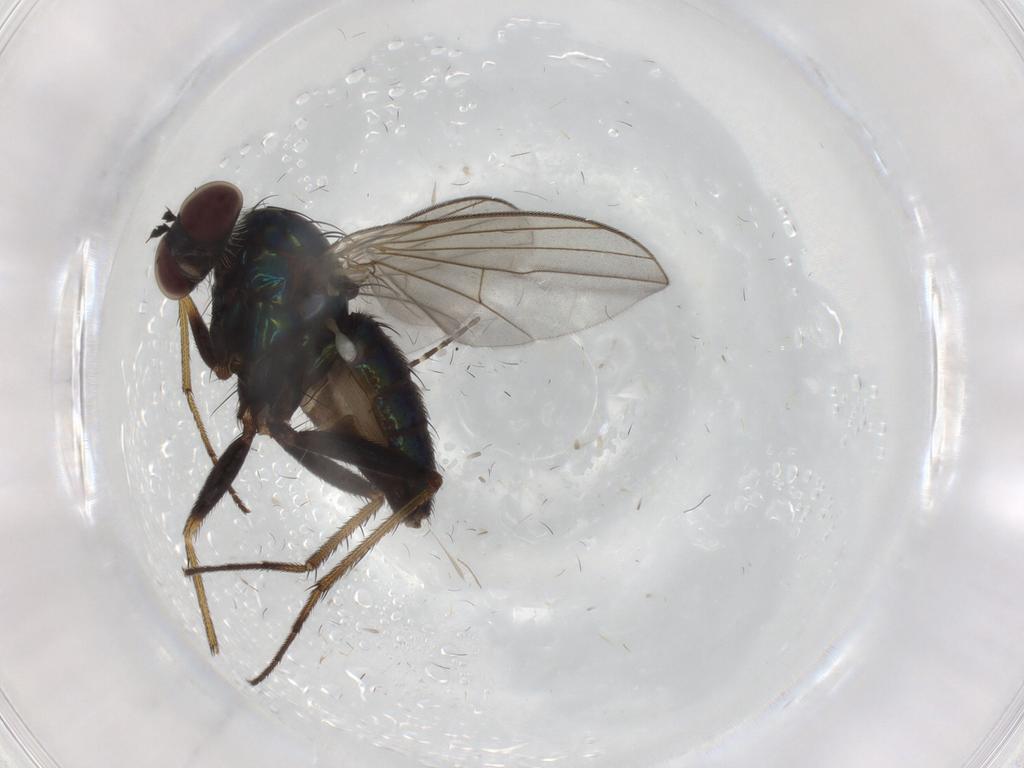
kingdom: Animalia
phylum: Arthropoda
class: Insecta
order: Diptera
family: Dolichopodidae
